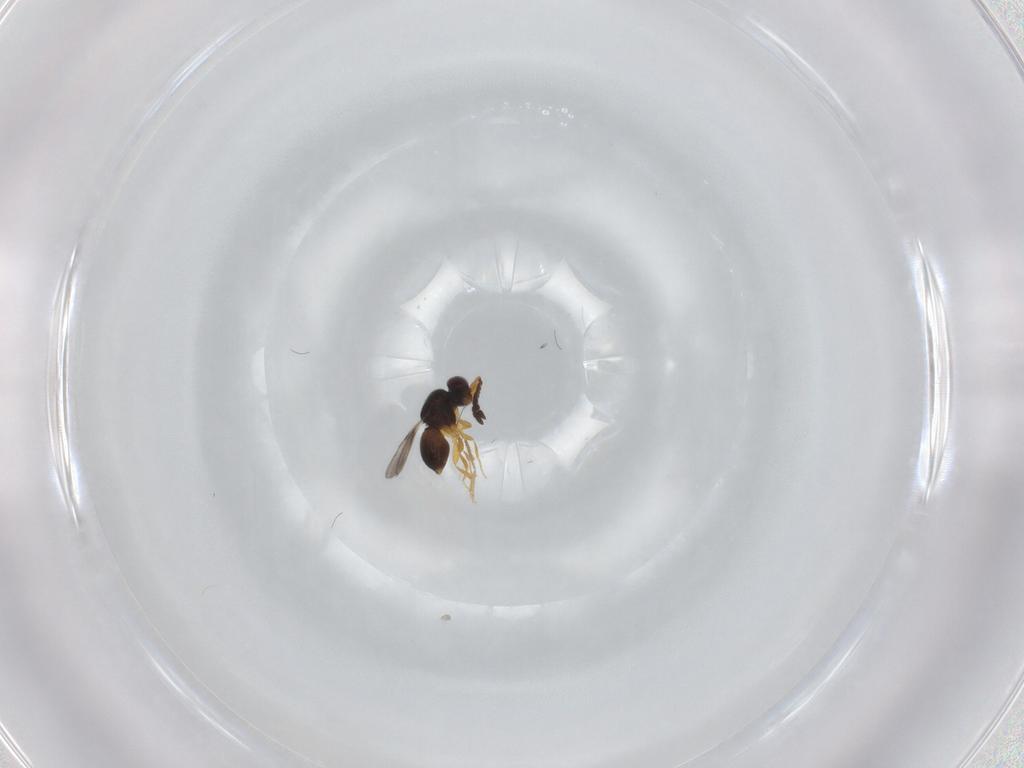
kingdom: Animalia
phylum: Arthropoda
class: Insecta
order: Hymenoptera
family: Ceraphronidae
